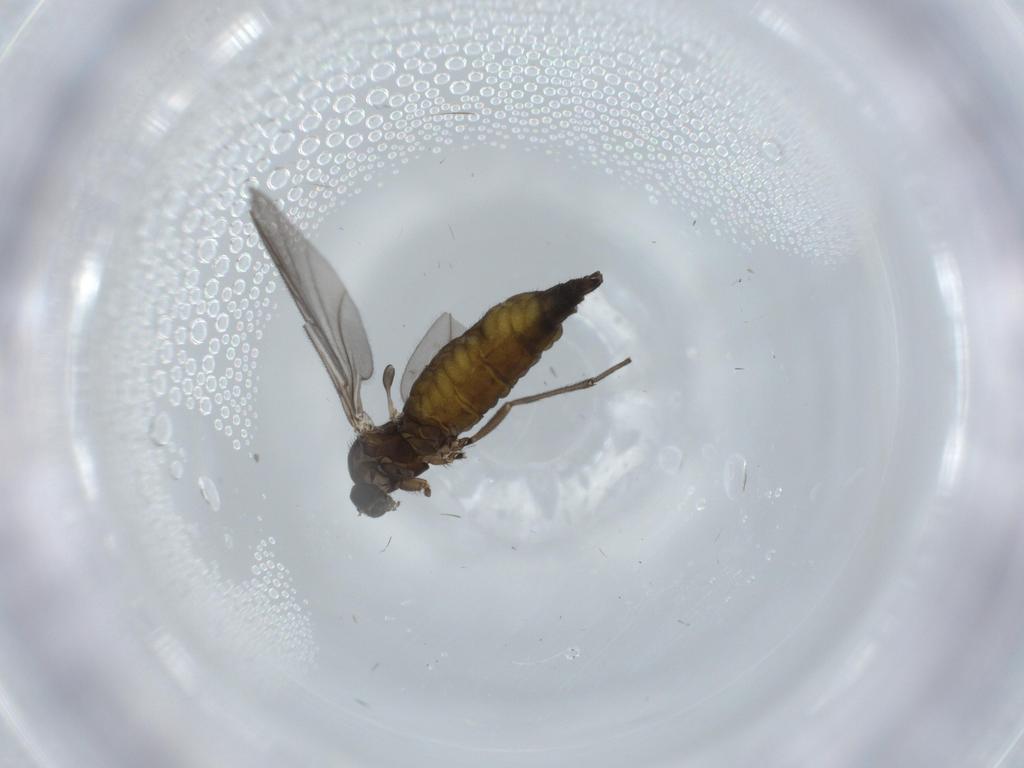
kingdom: Animalia
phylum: Arthropoda
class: Insecta
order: Diptera
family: Sciaridae
